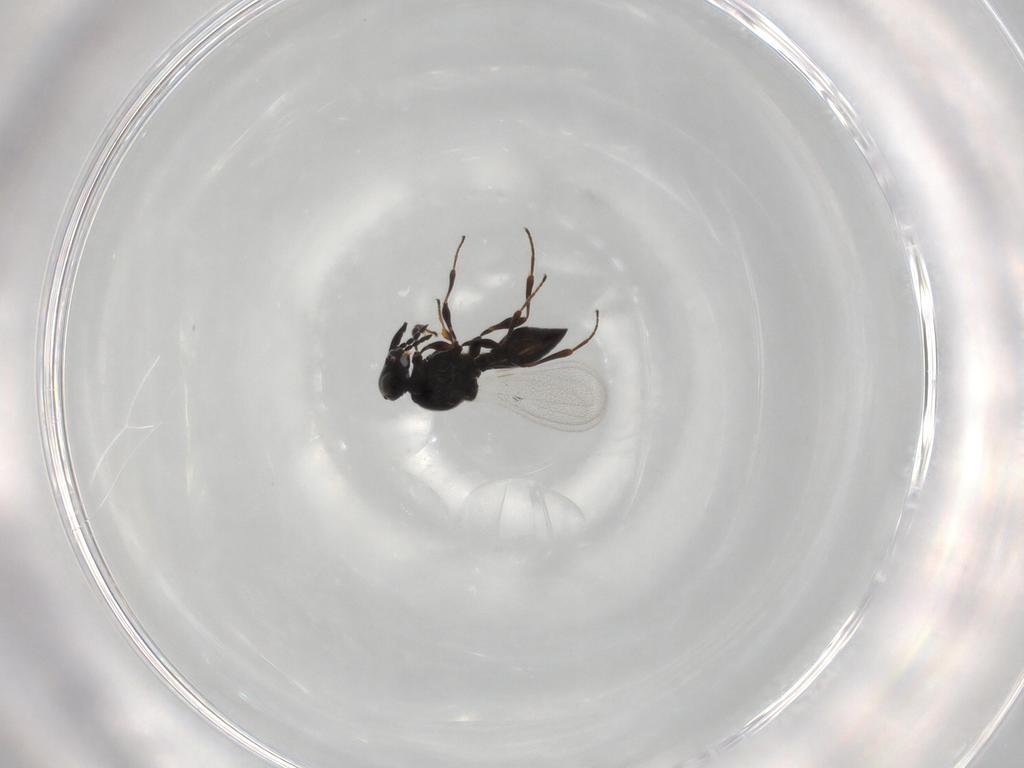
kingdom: Animalia
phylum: Arthropoda
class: Insecta
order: Hymenoptera
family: Platygastridae
